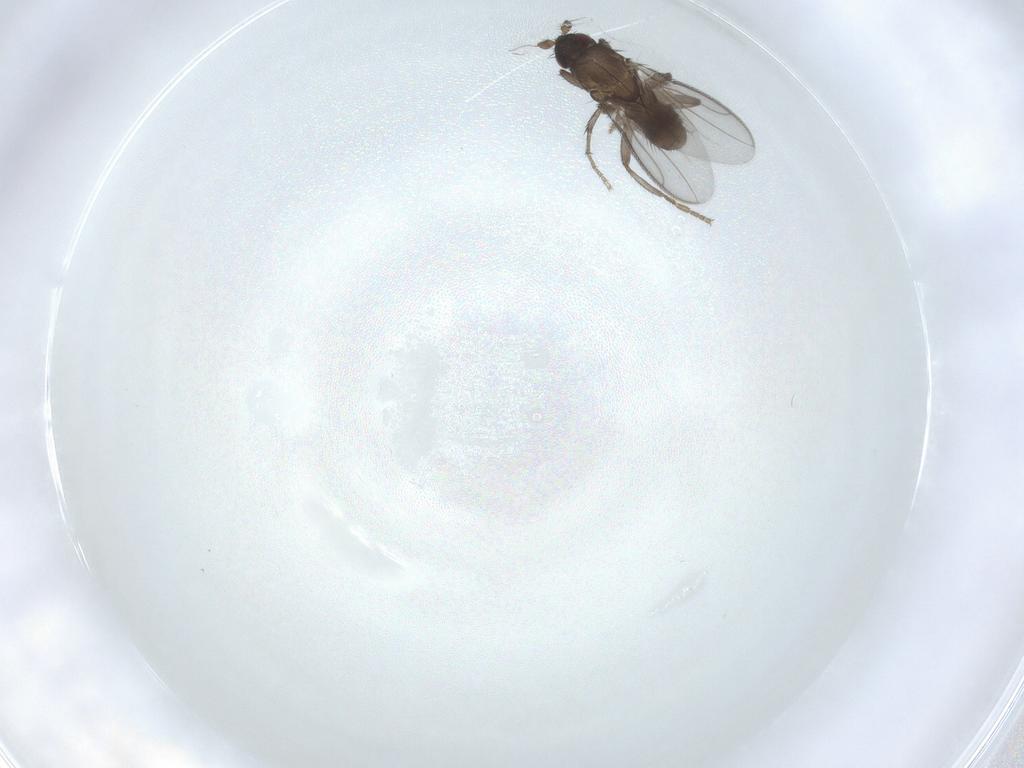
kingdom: Animalia
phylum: Arthropoda
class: Insecta
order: Diptera
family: Sphaeroceridae
